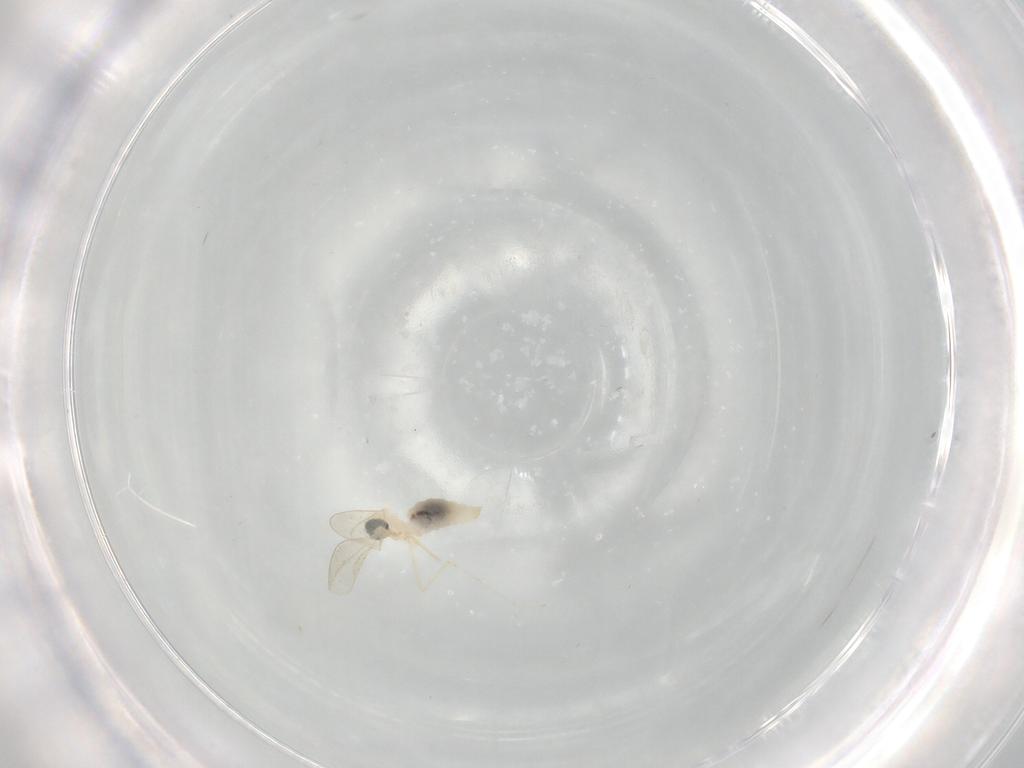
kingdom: Animalia
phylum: Arthropoda
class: Insecta
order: Diptera
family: Cecidomyiidae
